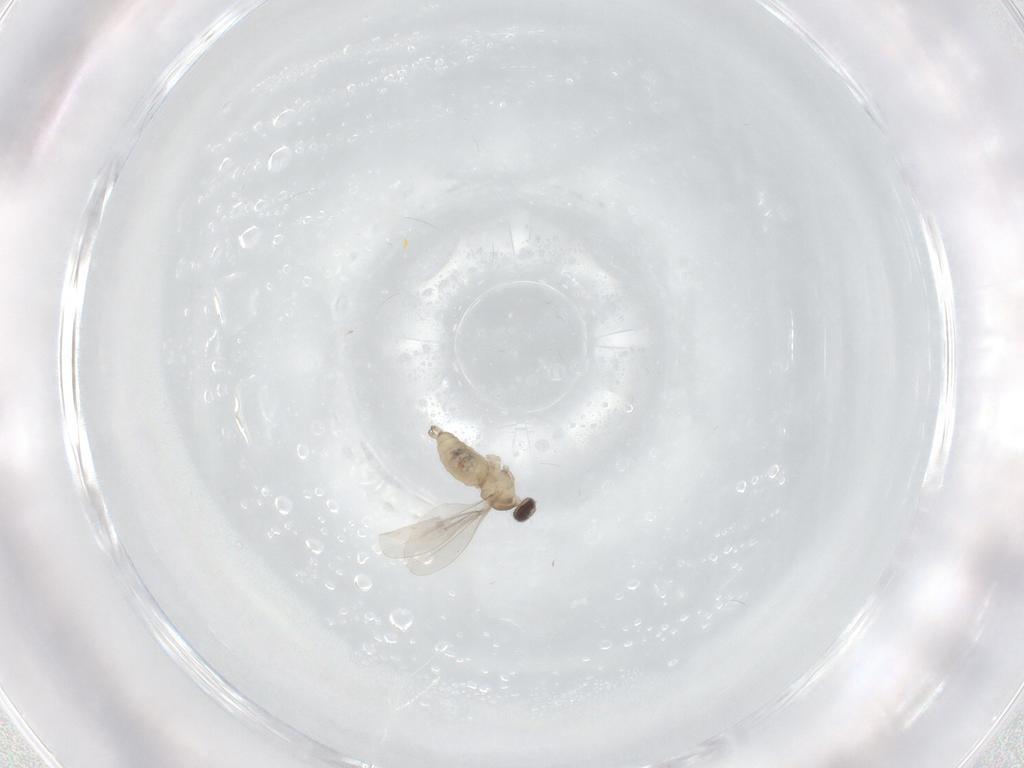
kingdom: Animalia
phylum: Arthropoda
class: Insecta
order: Diptera
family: Cecidomyiidae
